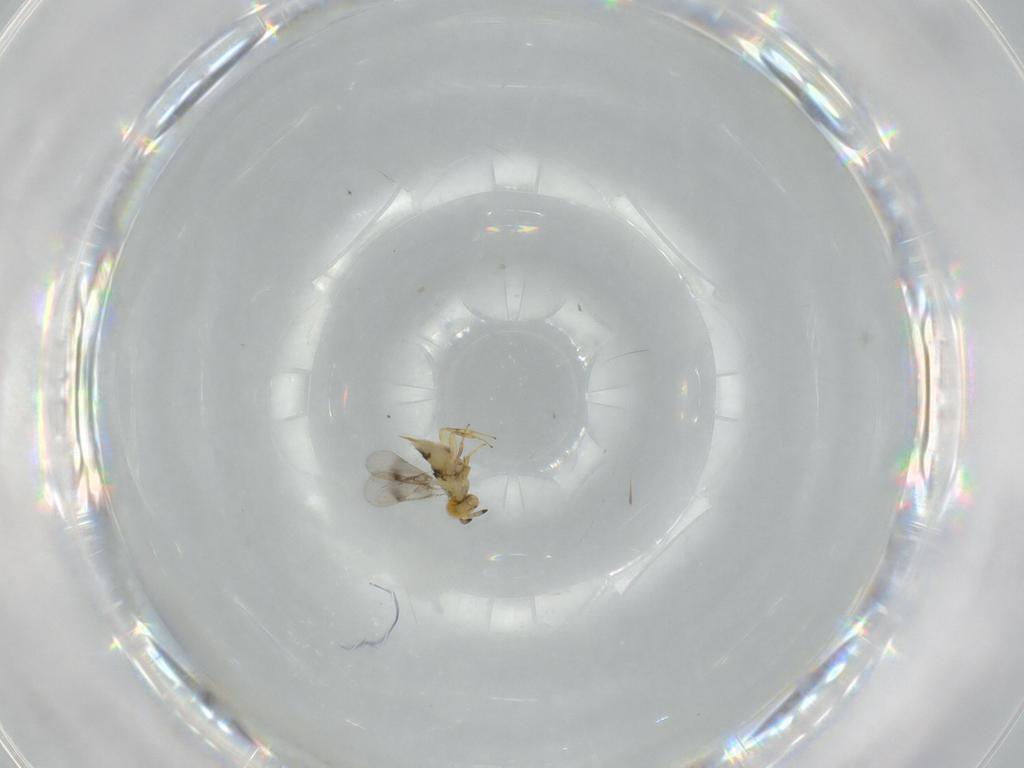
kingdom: Animalia
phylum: Arthropoda
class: Insecta
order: Hymenoptera
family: Aphelinidae
